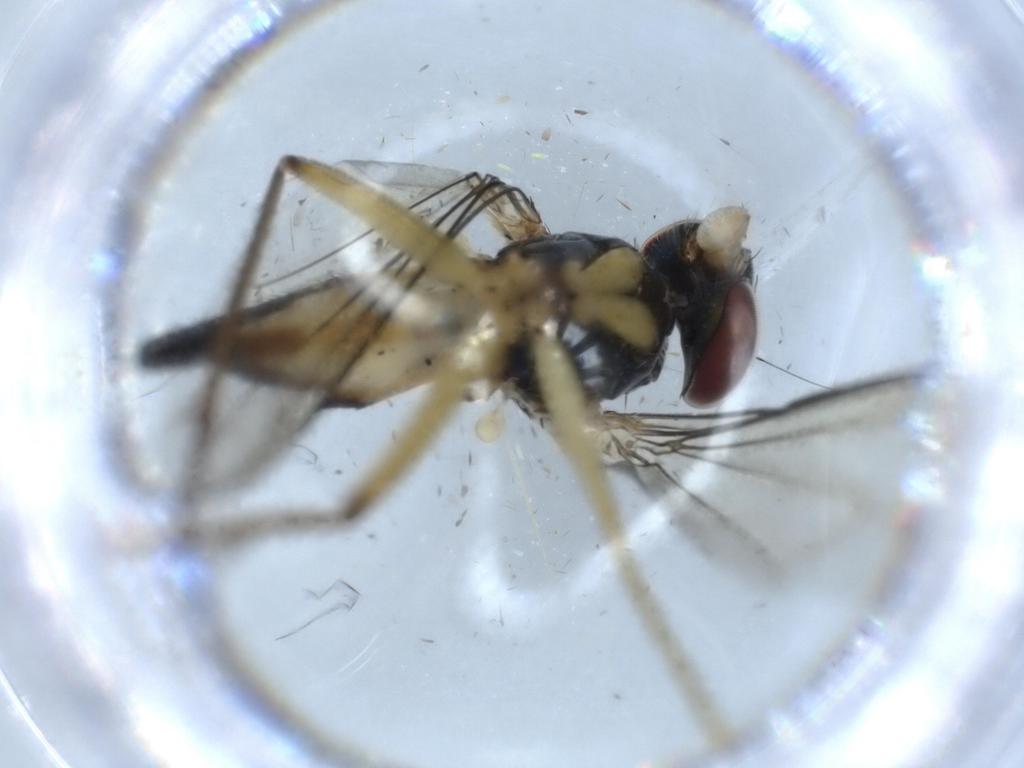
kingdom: Animalia
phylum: Arthropoda
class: Insecta
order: Diptera
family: Dolichopodidae
